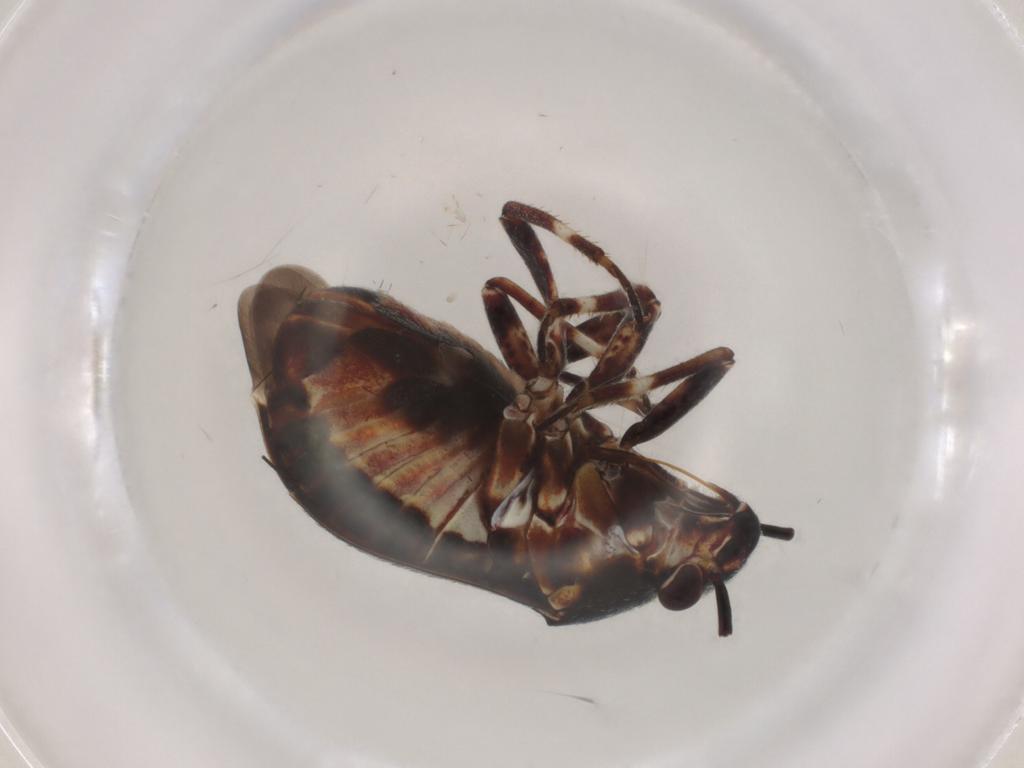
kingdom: Animalia
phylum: Arthropoda
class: Insecta
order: Hemiptera
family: Miridae
